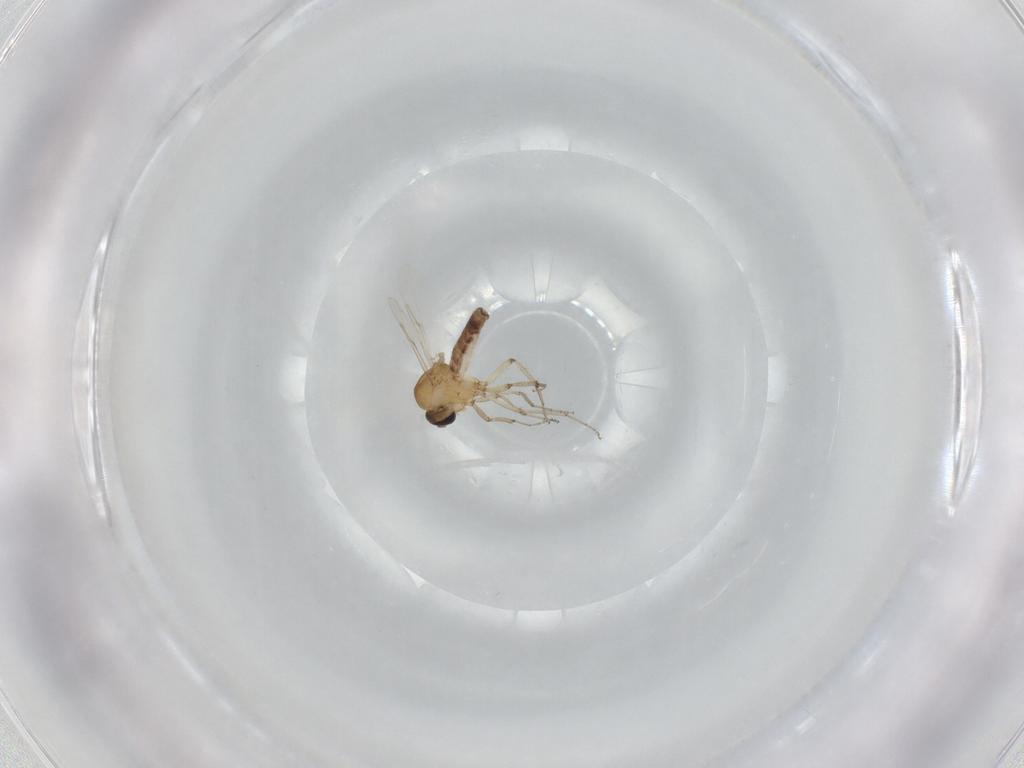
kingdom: Animalia
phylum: Arthropoda
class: Insecta
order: Diptera
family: Ceratopogonidae
